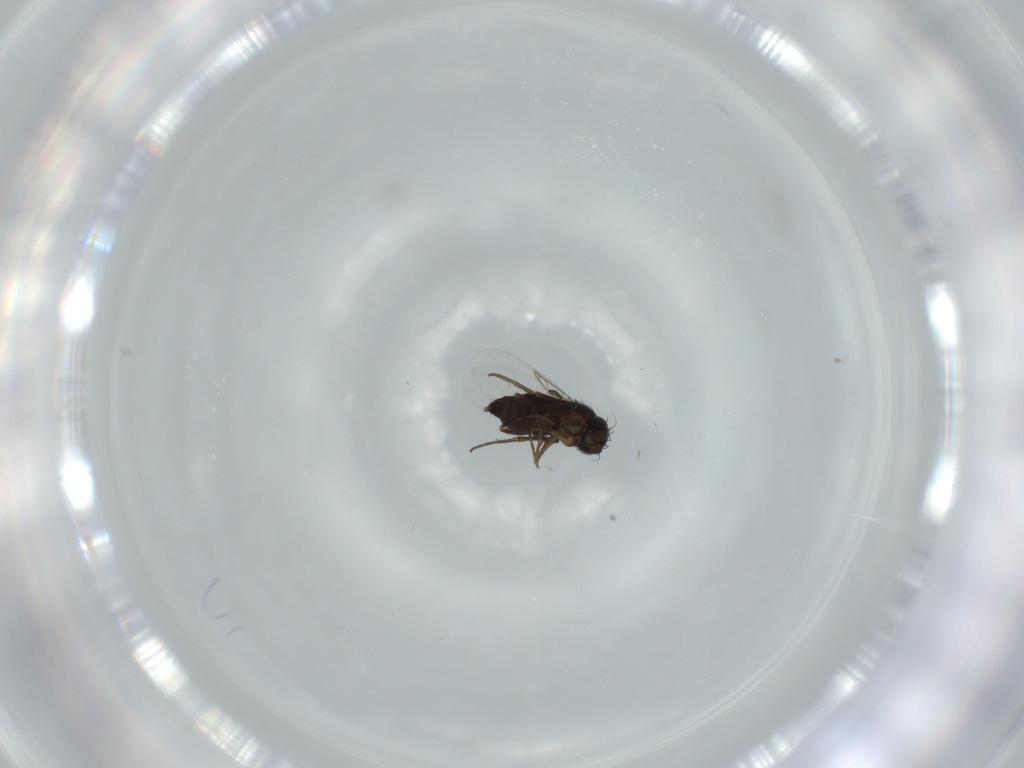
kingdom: Animalia
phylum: Arthropoda
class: Insecta
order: Diptera
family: Phoridae
